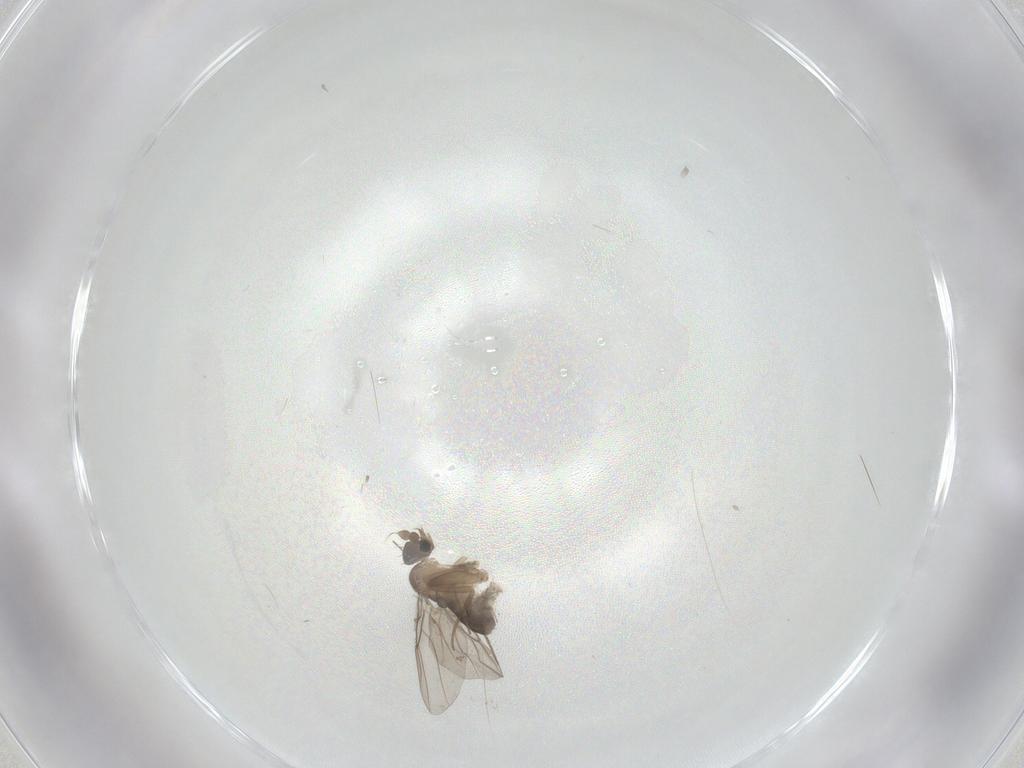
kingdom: Animalia
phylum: Arthropoda
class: Insecta
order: Diptera
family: Phoridae
